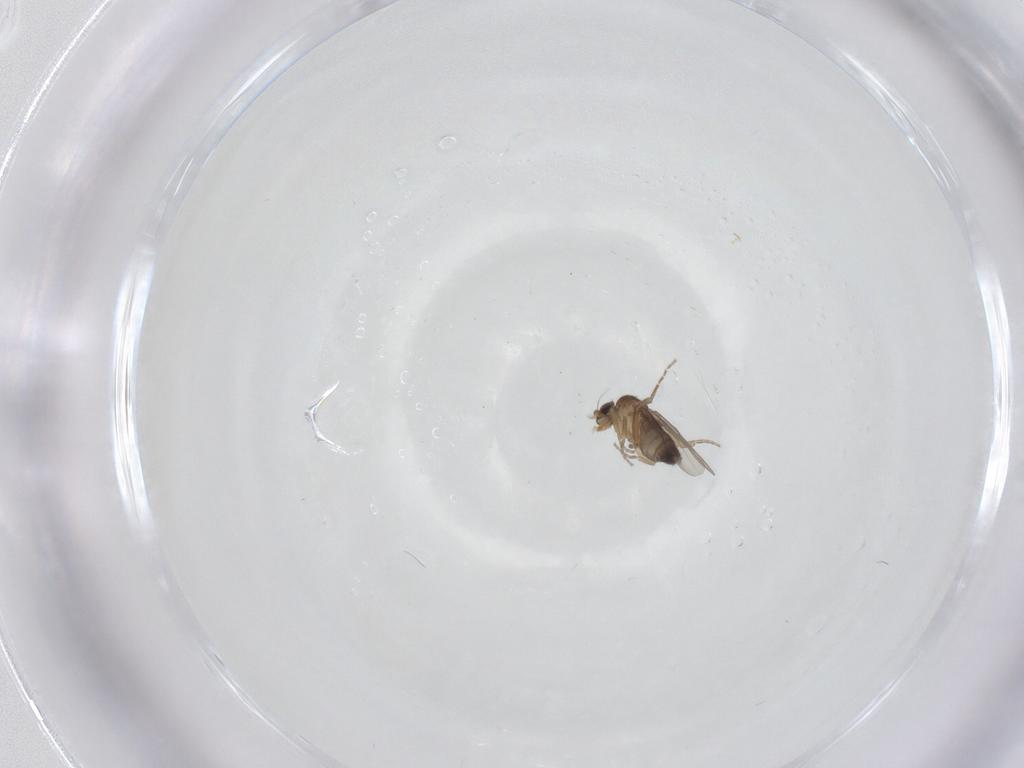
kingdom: Animalia
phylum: Arthropoda
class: Insecta
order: Diptera
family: Phoridae
